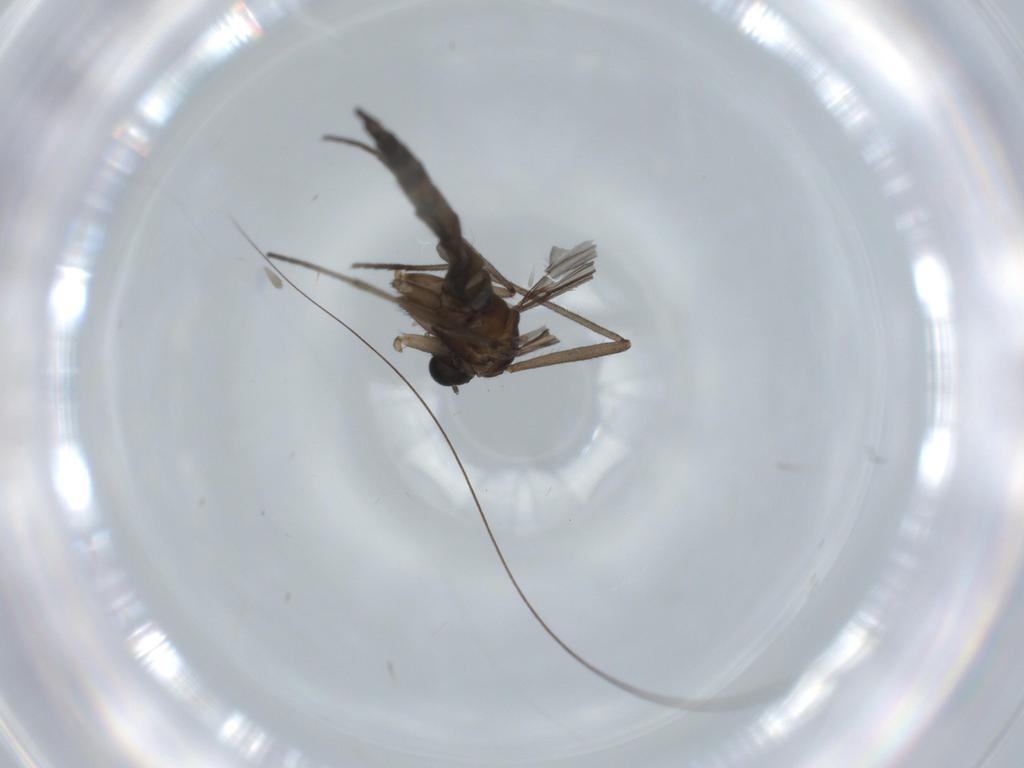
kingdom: Animalia
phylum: Arthropoda
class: Insecta
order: Diptera
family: Sciaridae
